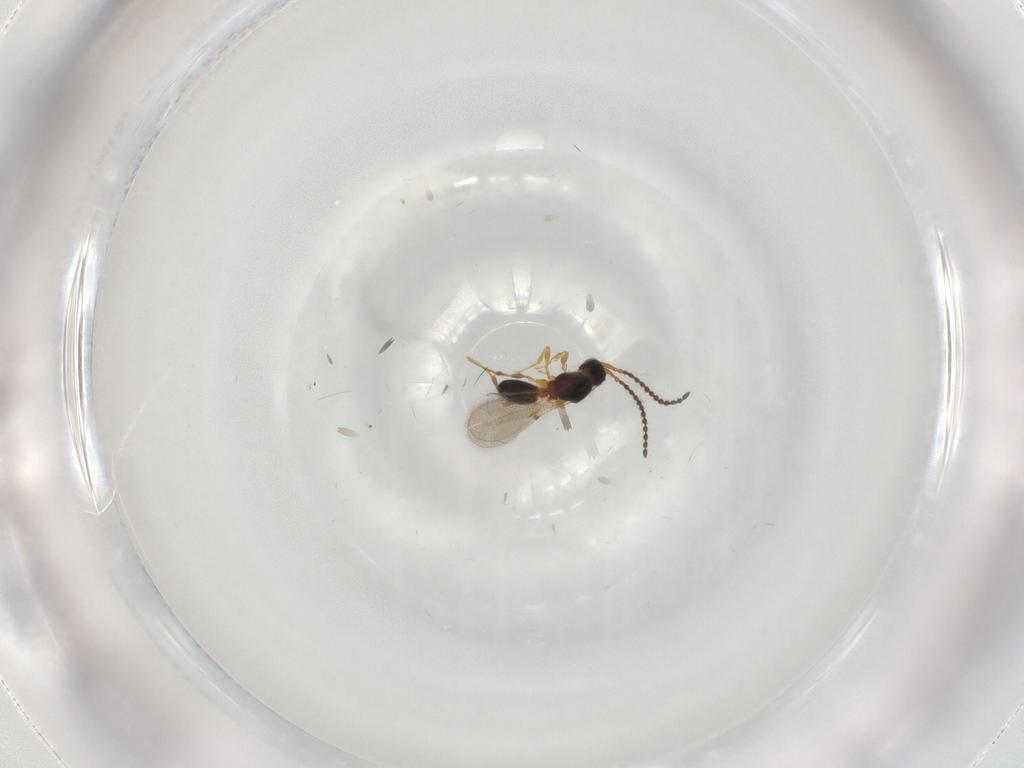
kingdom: Animalia
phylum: Arthropoda
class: Insecta
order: Hymenoptera
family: Diapriidae
